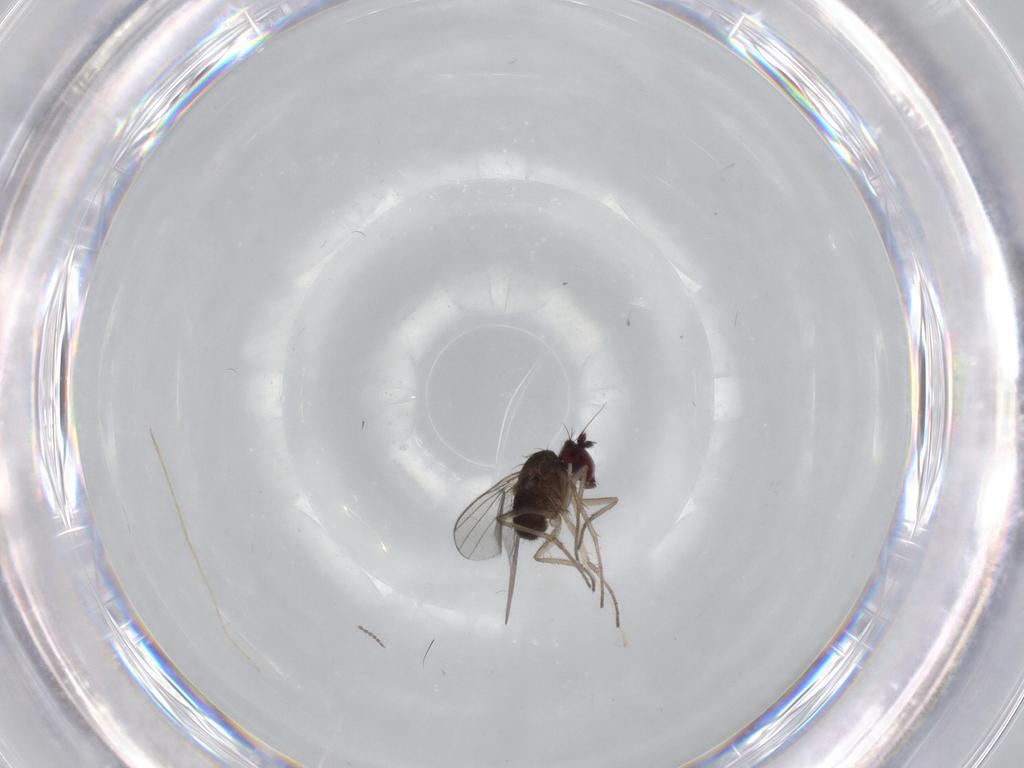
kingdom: Animalia
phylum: Arthropoda
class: Insecta
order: Diptera
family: Dolichopodidae
